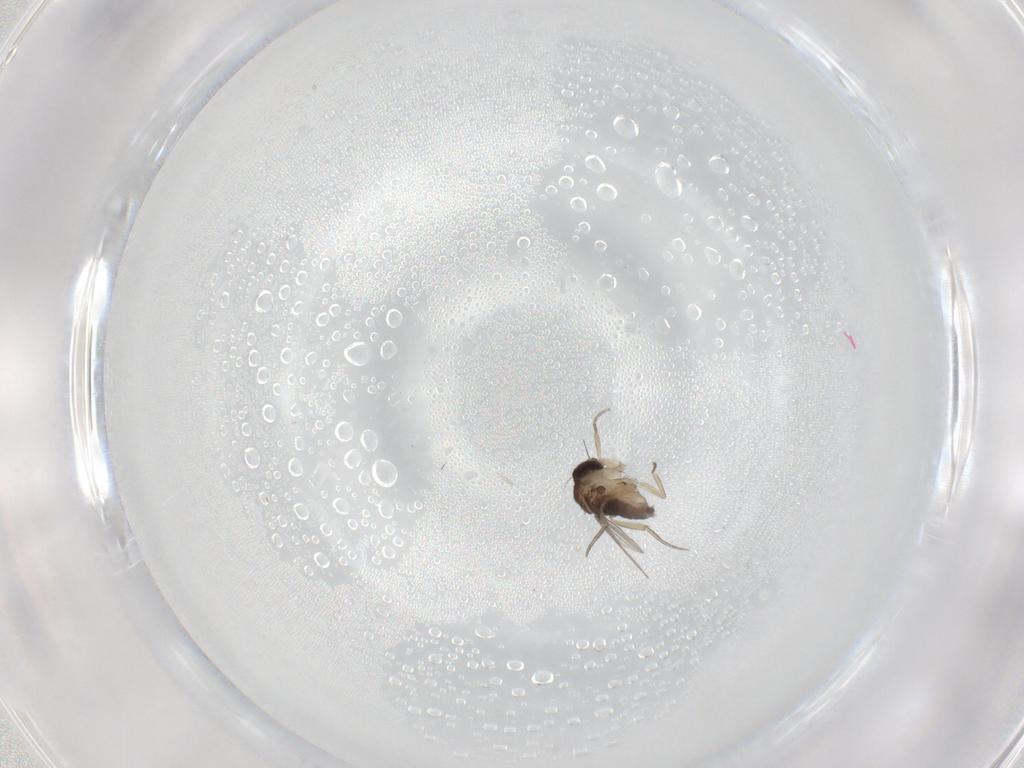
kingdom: Animalia
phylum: Arthropoda
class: Insecta
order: Diptera
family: Phoridae
